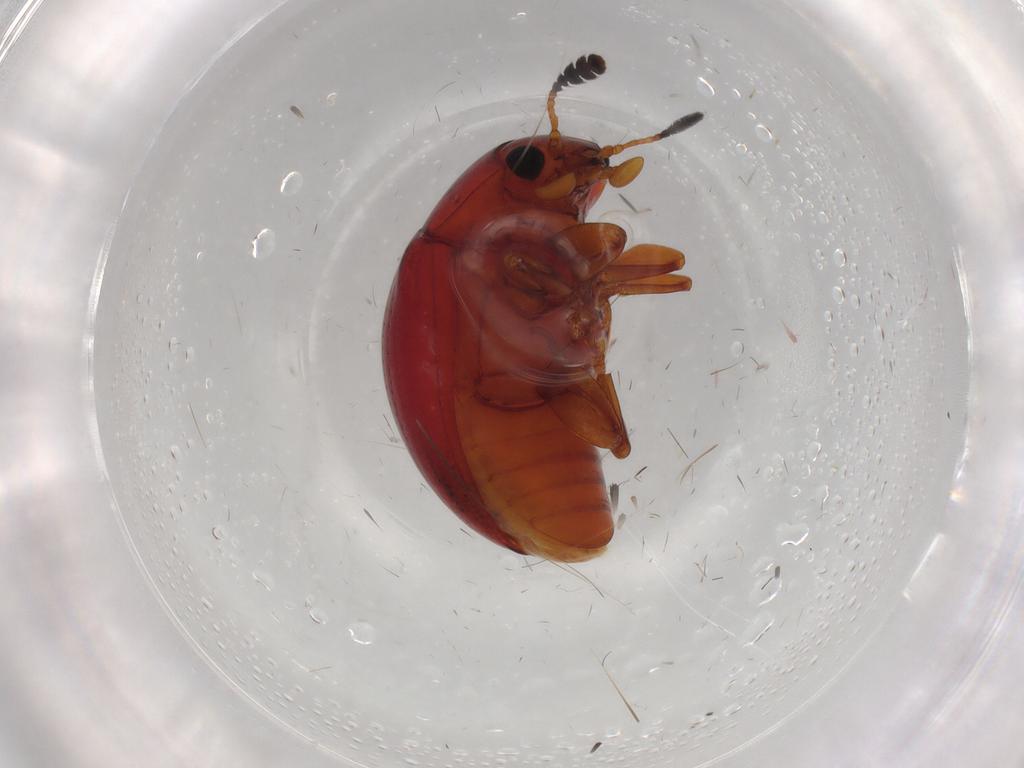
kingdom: Animalia
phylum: Arthropoda
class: Insecta
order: Coleoptera
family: Erotylidae
